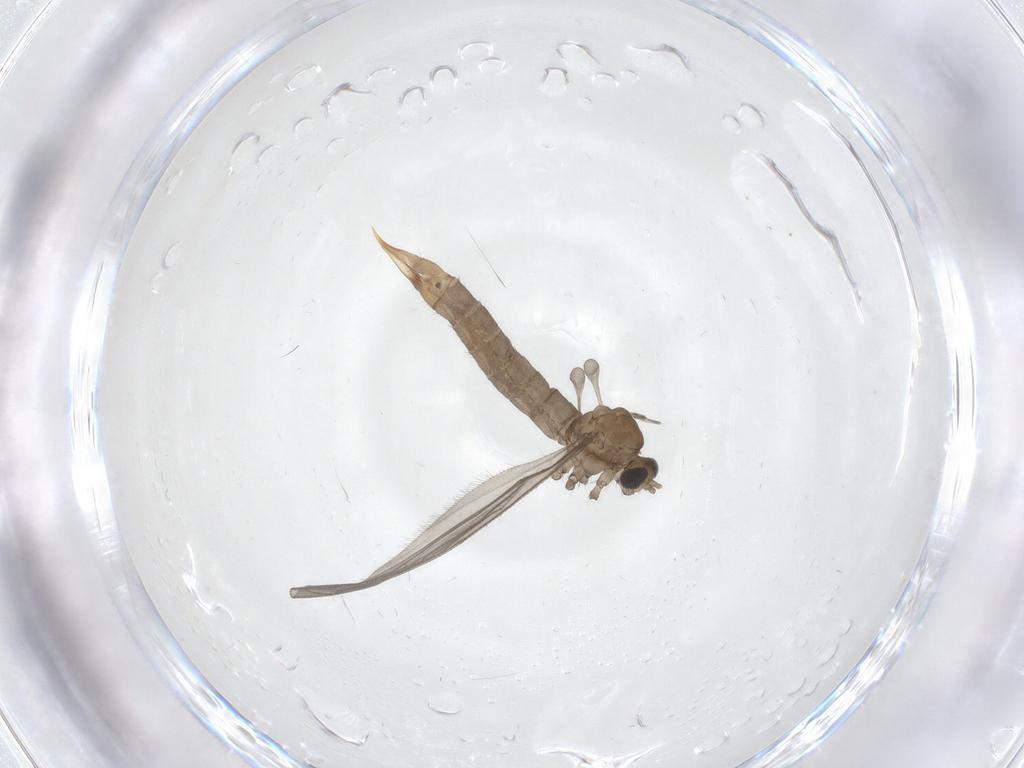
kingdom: Animalia
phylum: Arthropoda
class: Insecta
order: Diptera
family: Limoniidae
